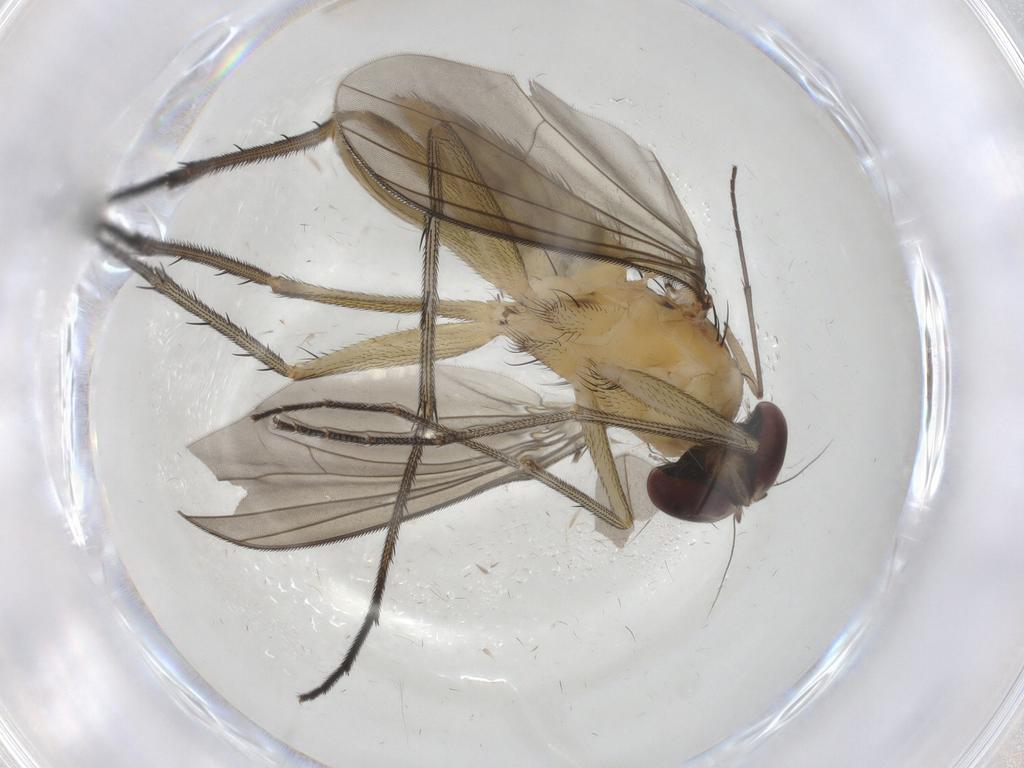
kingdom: Animalia
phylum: Arthropoda
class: Insecta
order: Diptera
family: Dolichopodidae
